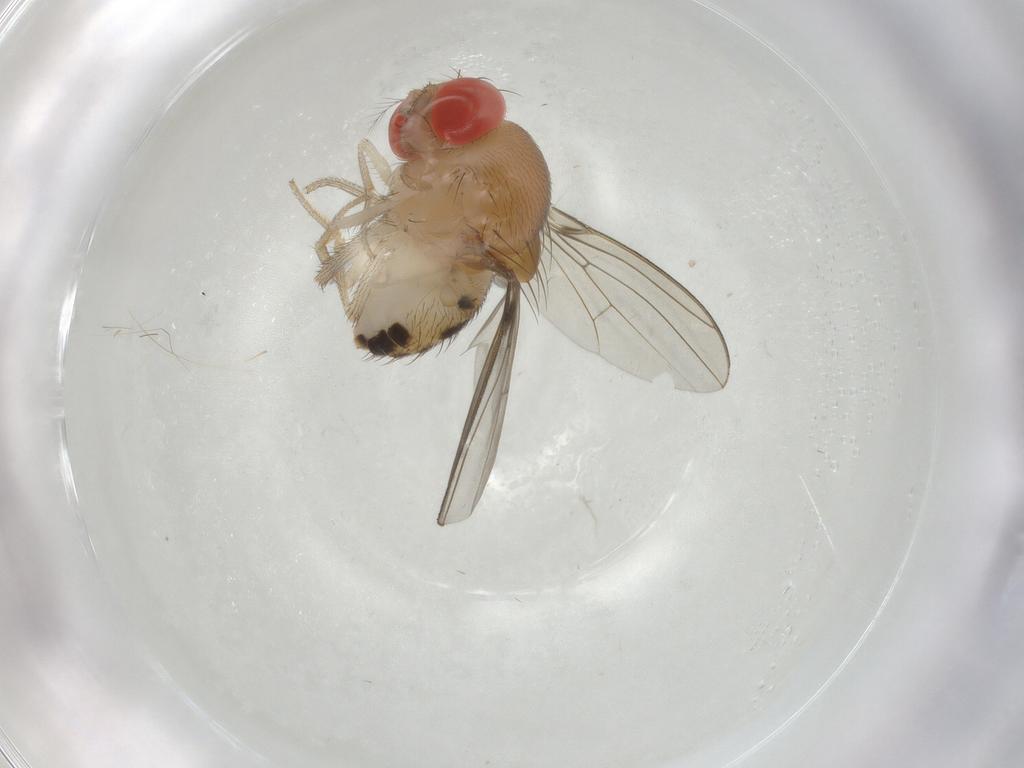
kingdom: Animalia
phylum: Arthropoda
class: Insecta
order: Diptera
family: Drosophilidae
